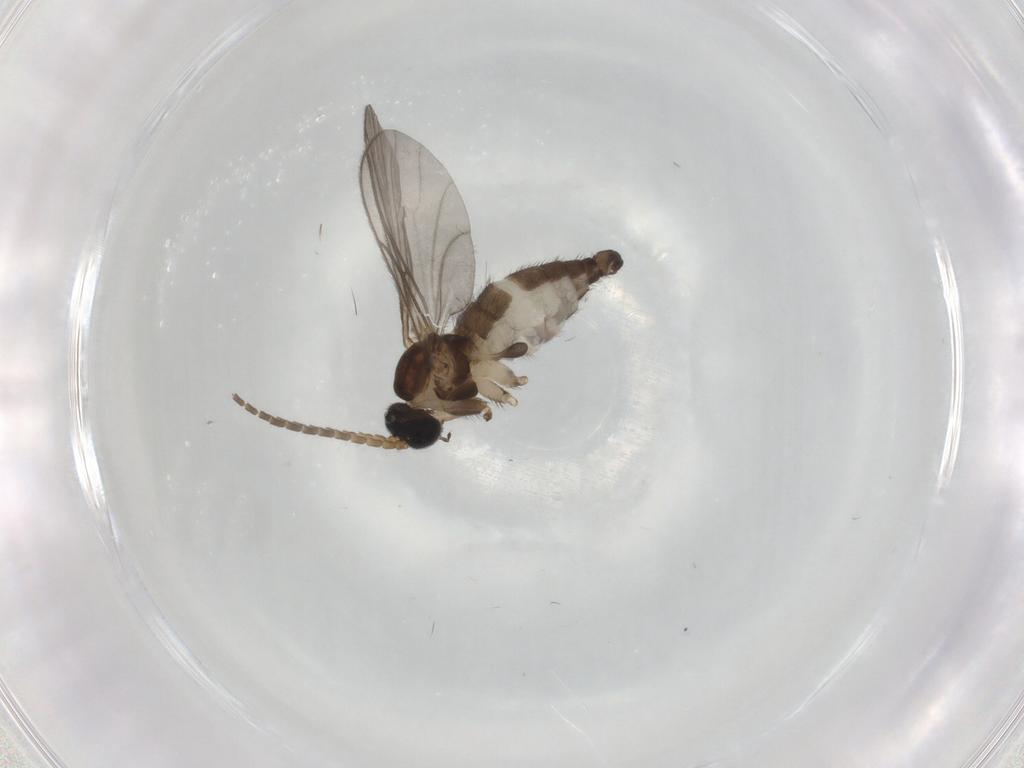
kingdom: Animalia
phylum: Arthropoda
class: Insecta
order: Diptera
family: Sciaridae
